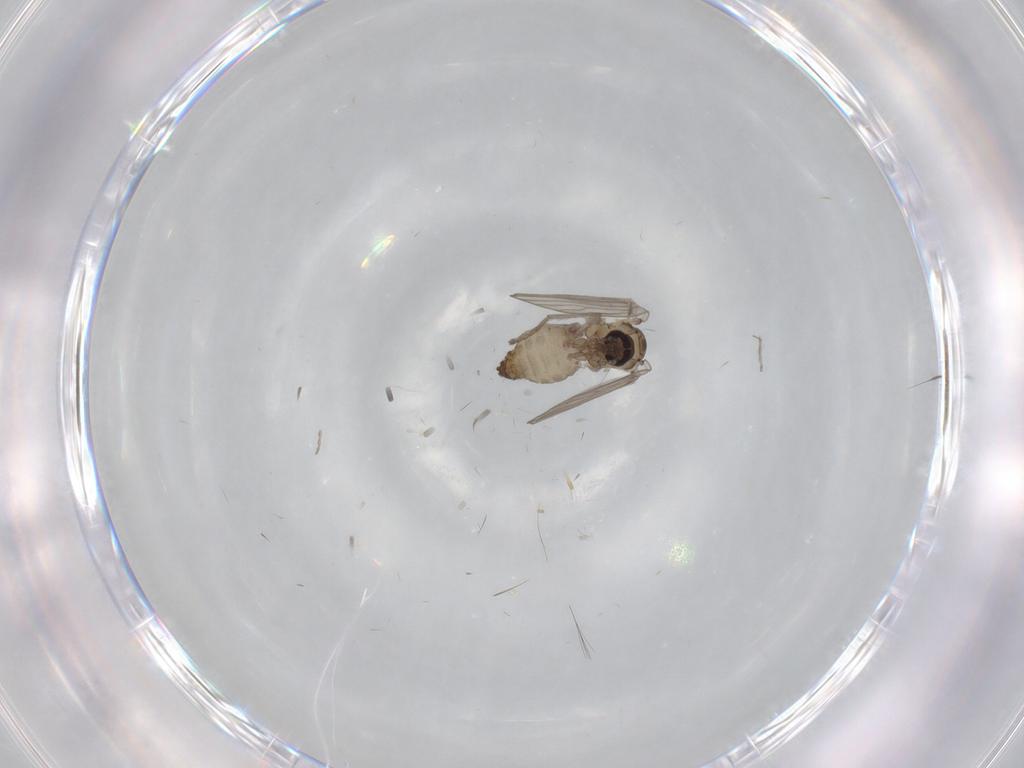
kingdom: Animalia
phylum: Arthropoda
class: Insecta
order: Diptera
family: Psychodidae
